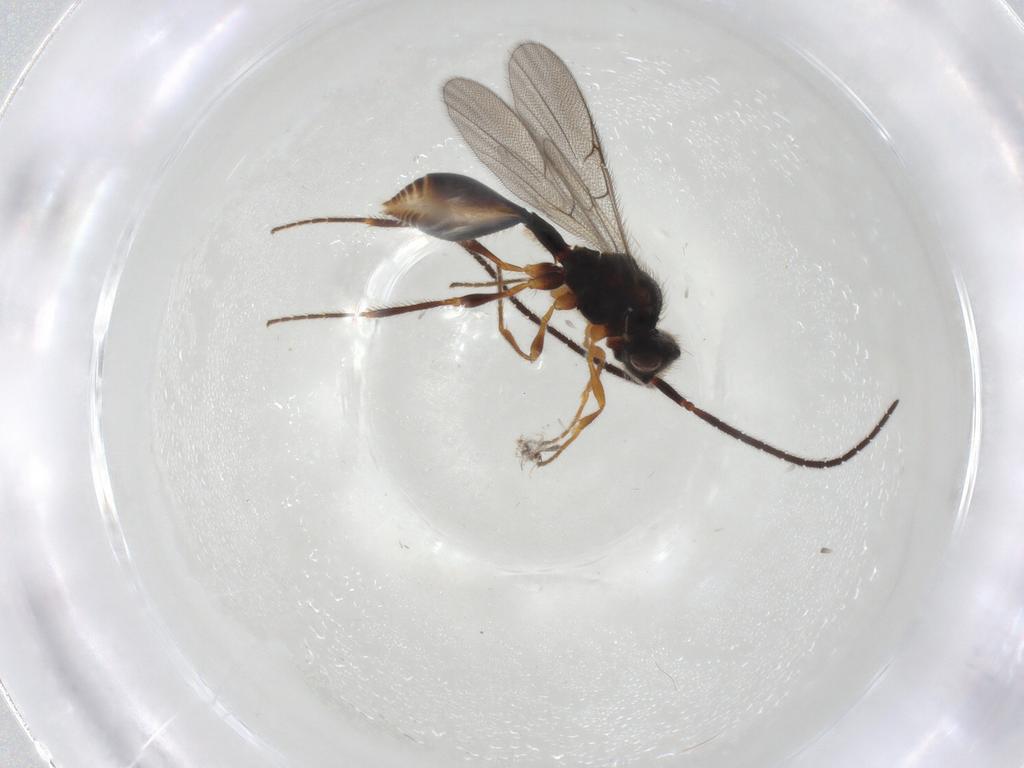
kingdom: Animalia
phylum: Arthropoda
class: Insecta
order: Hymenoptera
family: Diapriidae
